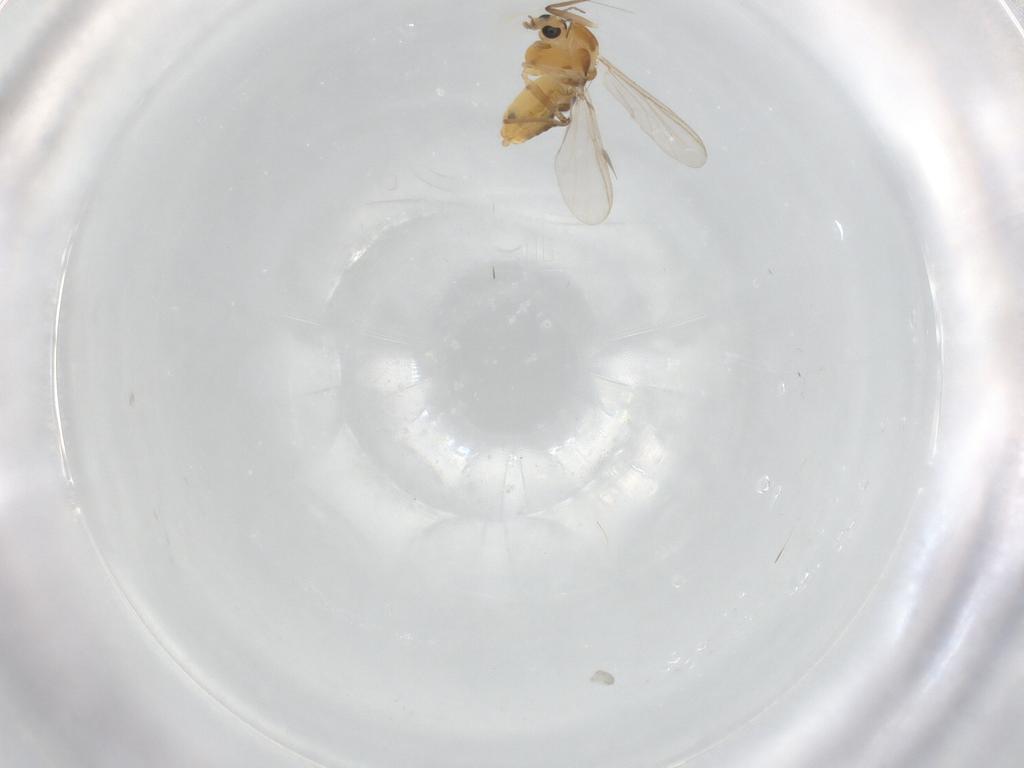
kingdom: Animalia
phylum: Arthropoda
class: Insecta
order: Diptera
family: Chironomidae
